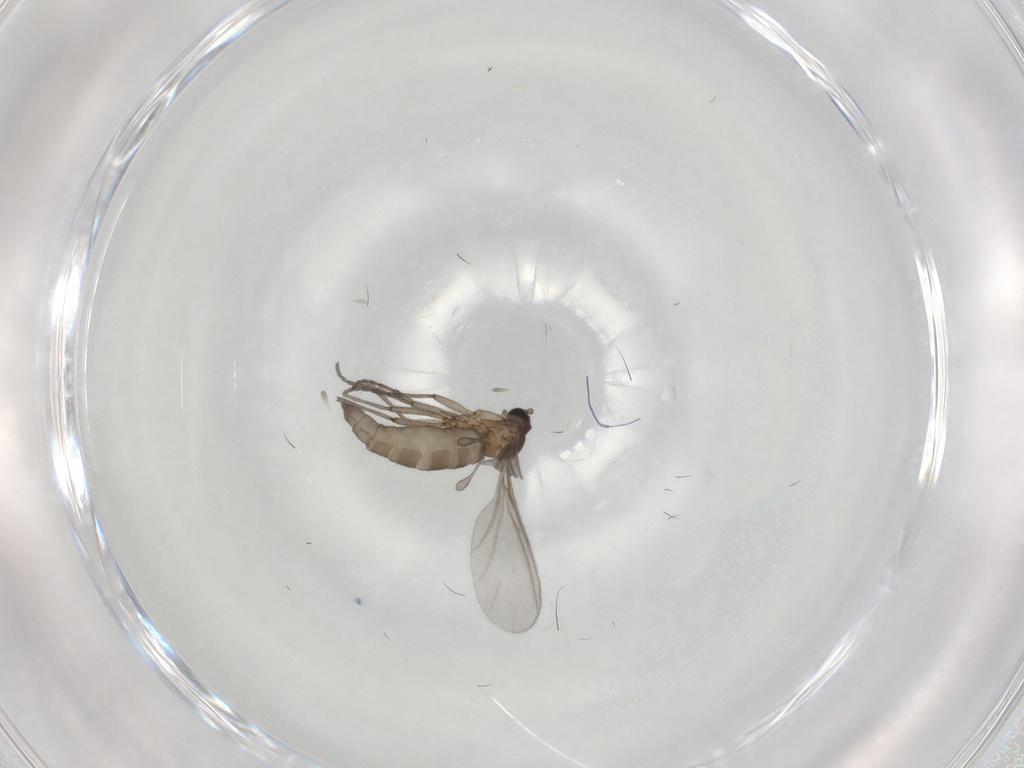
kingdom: Animalia
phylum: Arthropoda
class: Insecta
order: Diptera
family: Sciaridae
